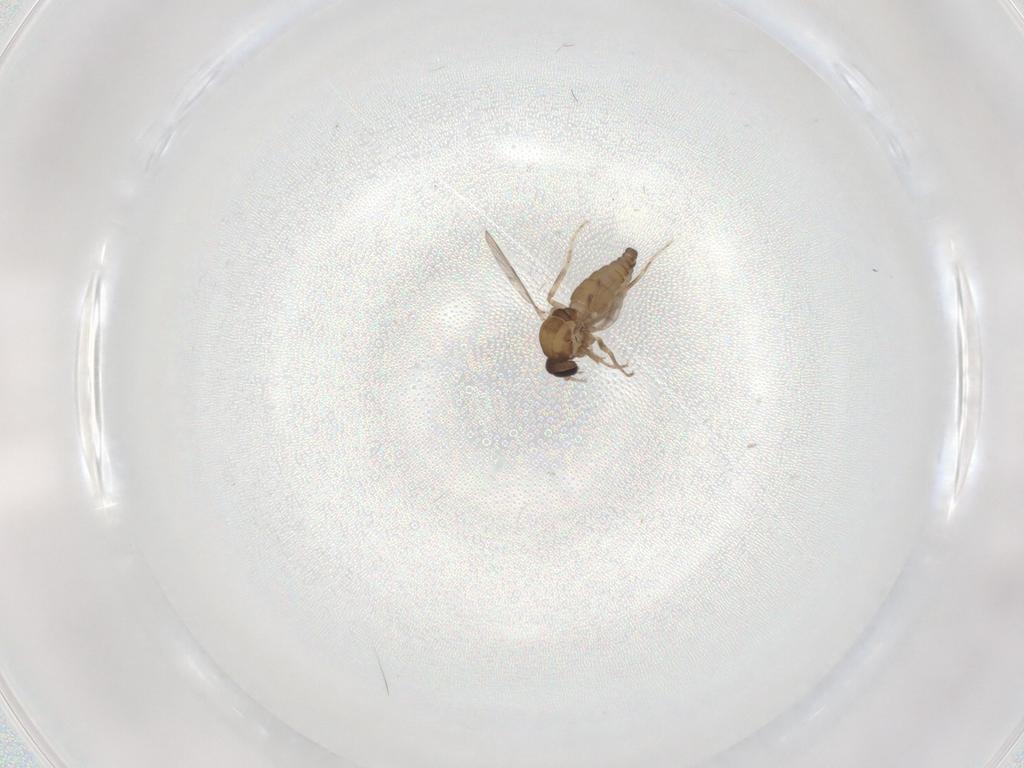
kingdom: Animalia
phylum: Arthropoda
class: Insecta
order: Diptera
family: Ceratopogonidae
